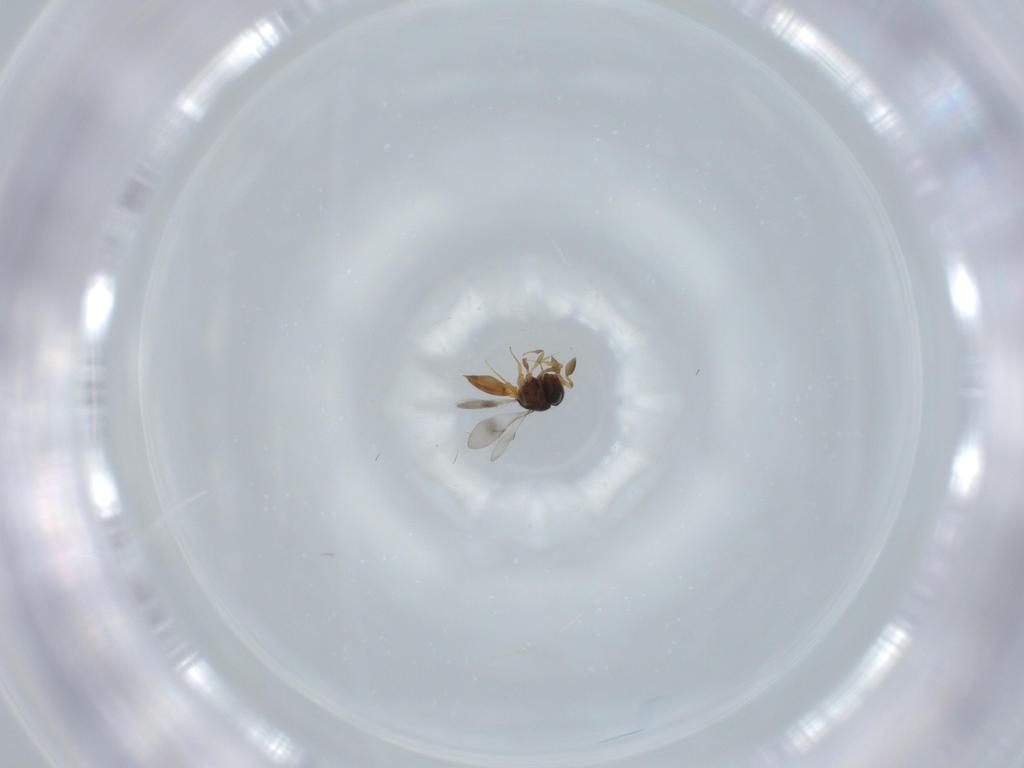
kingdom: Animalia
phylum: Arthropoda
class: Insecta
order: Hymenoptera
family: Scelionidae
